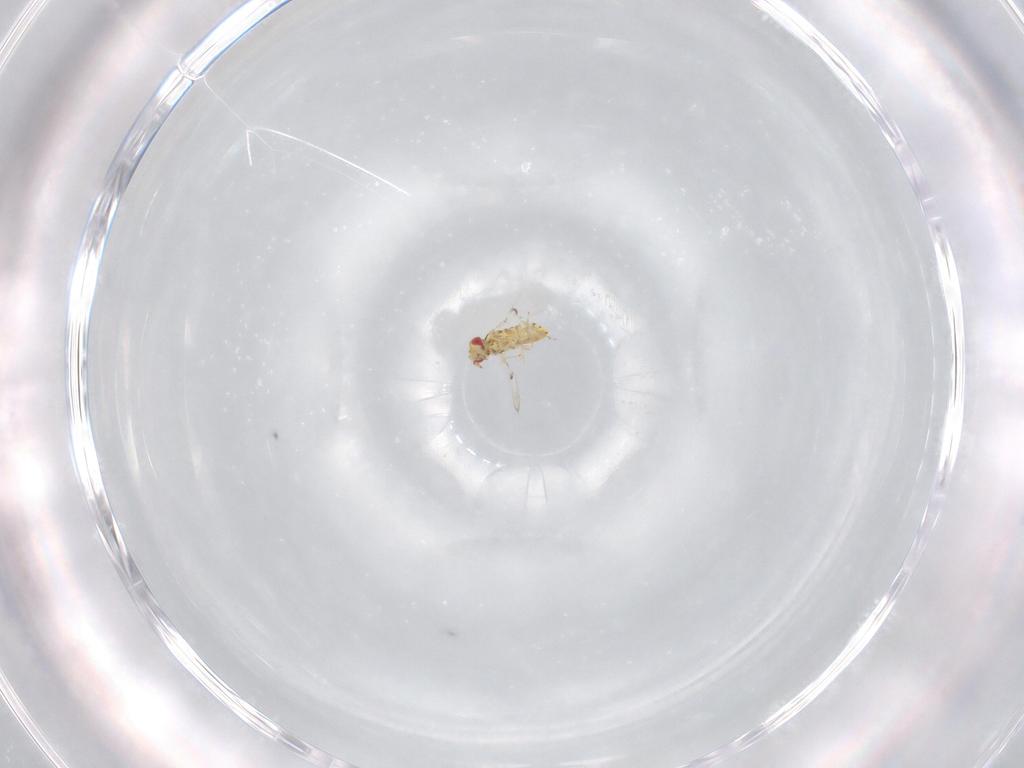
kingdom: Animalia
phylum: Arthropoda
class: Insecta
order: Hymenoptera
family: Trichogrammatidae
